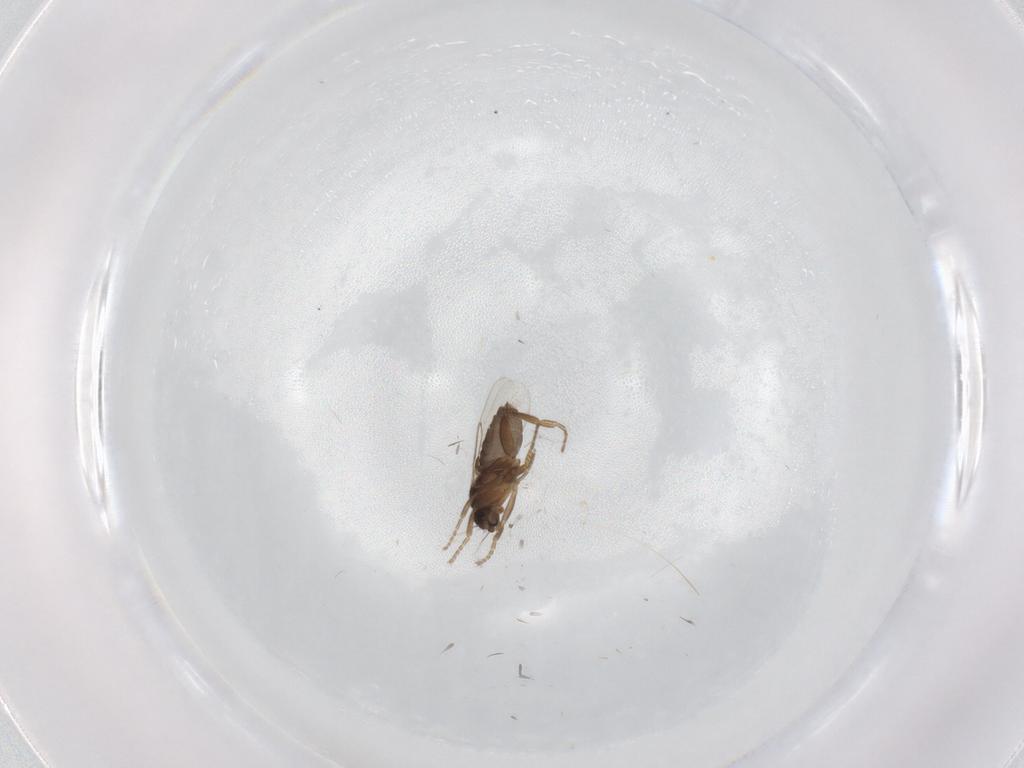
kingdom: Animalia
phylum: Arthropoda
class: Insecta
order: Diptera
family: Phoridae
